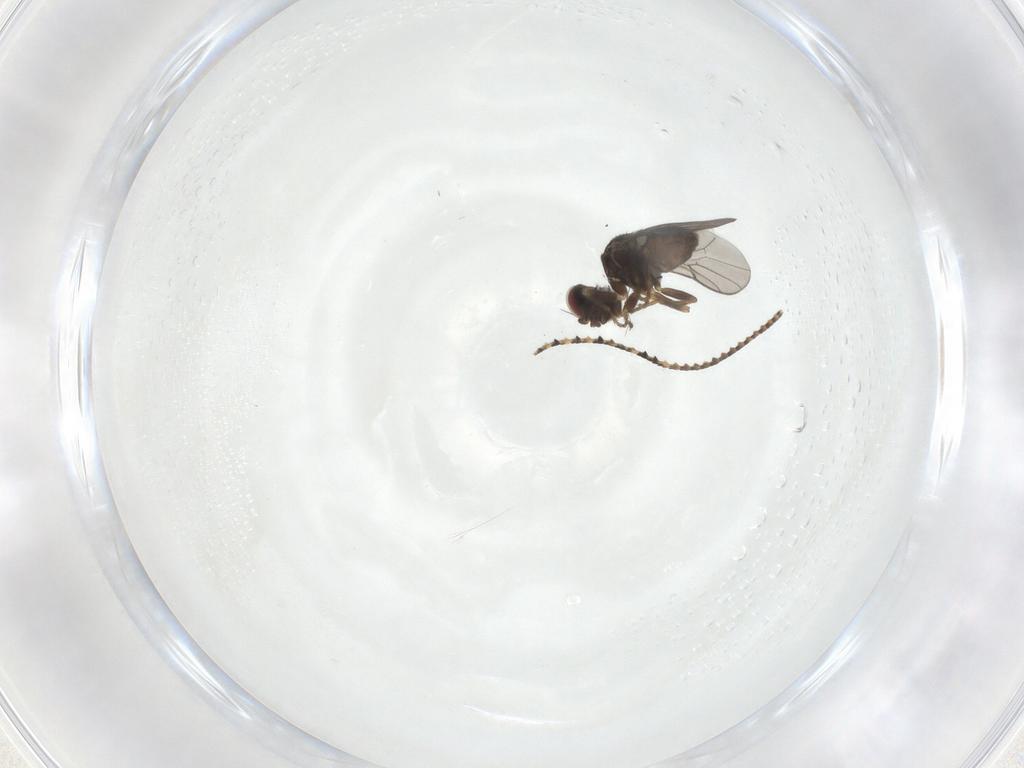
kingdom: Animalia
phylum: Arthropoda
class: Insecta
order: Diptera
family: Chloropidae
